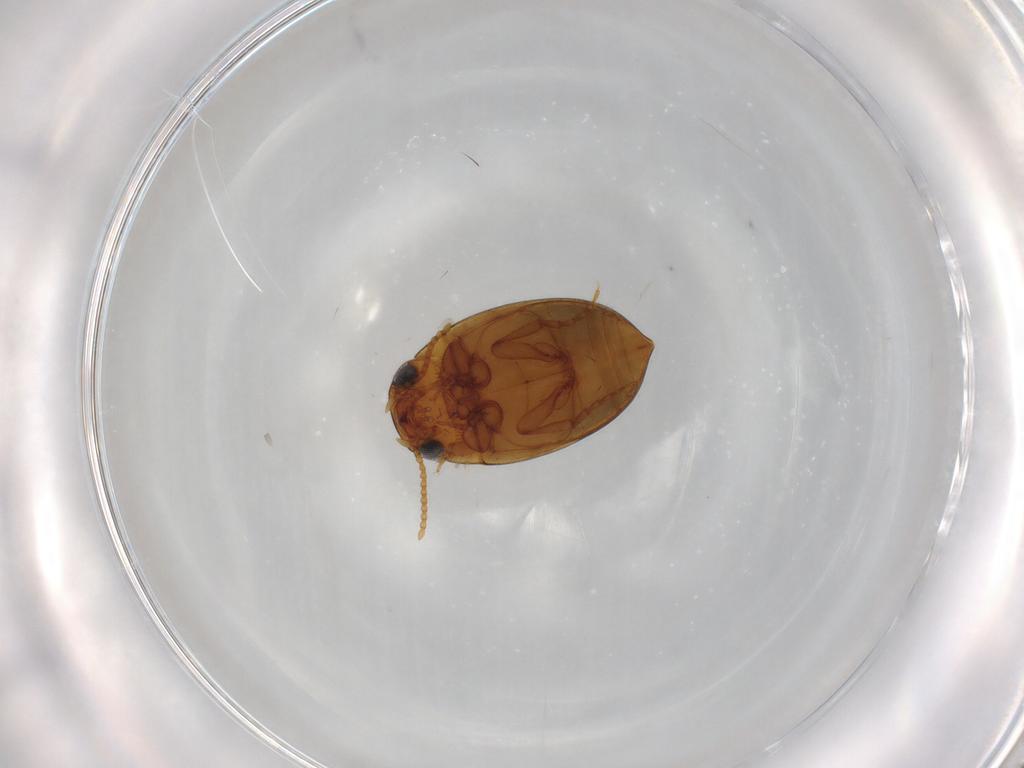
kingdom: Animalia
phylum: Arthropoda
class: Insecta
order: Coleoptera
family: Dytiscidae
